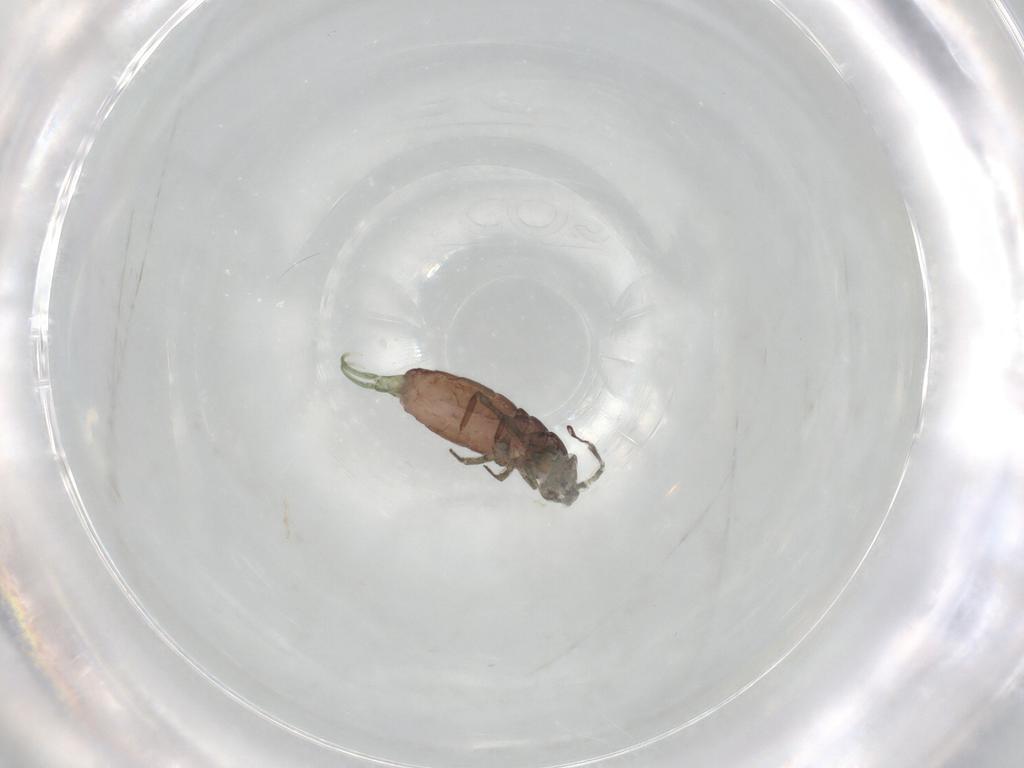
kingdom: Animalia
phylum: Arthropoda
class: Collembola
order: Entomobryomorpha
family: Isotomidae
